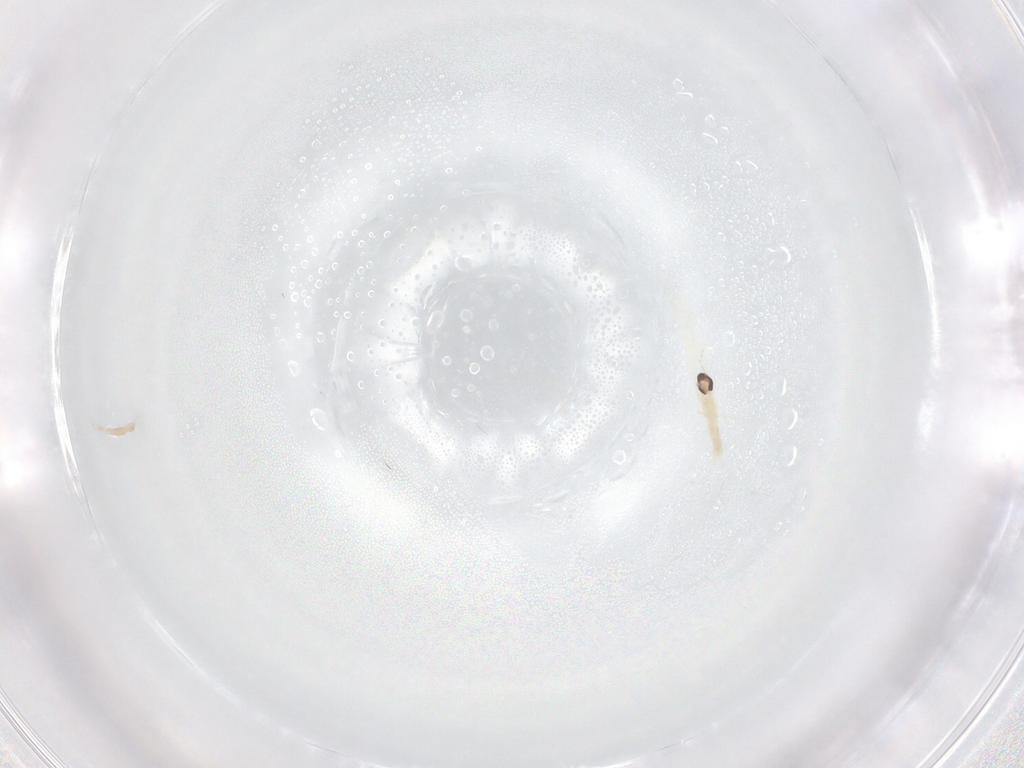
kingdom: Animalia
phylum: Arthropoda
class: Insecta
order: Diptera
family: Cecidomyiidae
